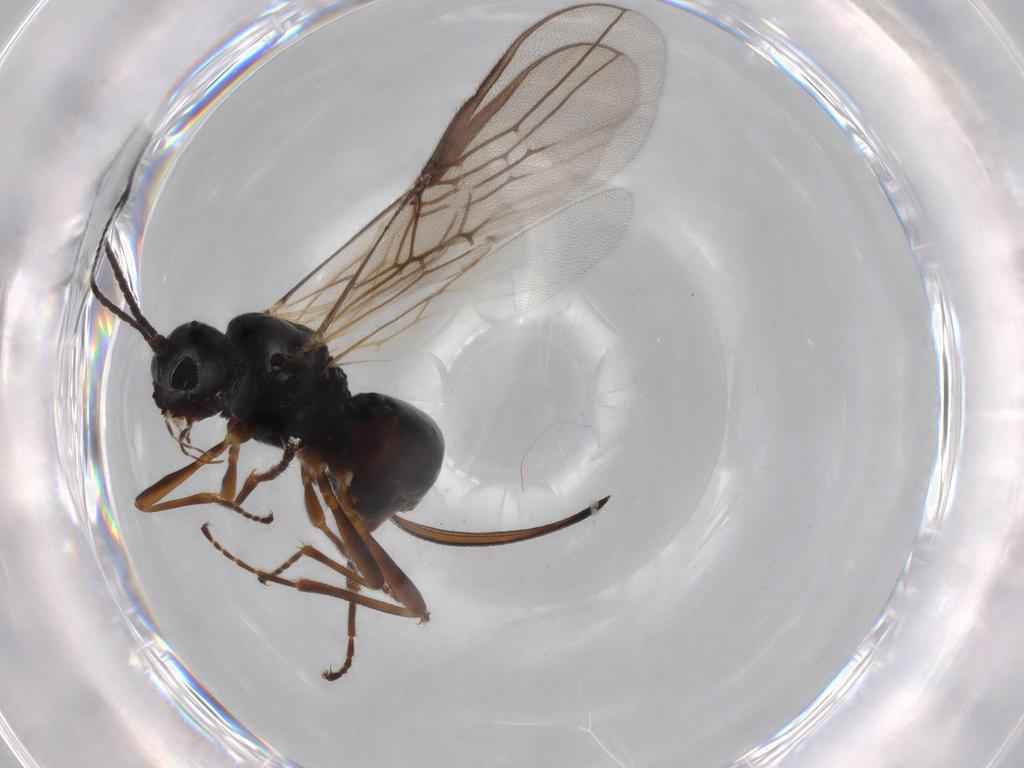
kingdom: Animalia
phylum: Arthropoda
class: Insecta
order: Hymenoptera
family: Braconidae
